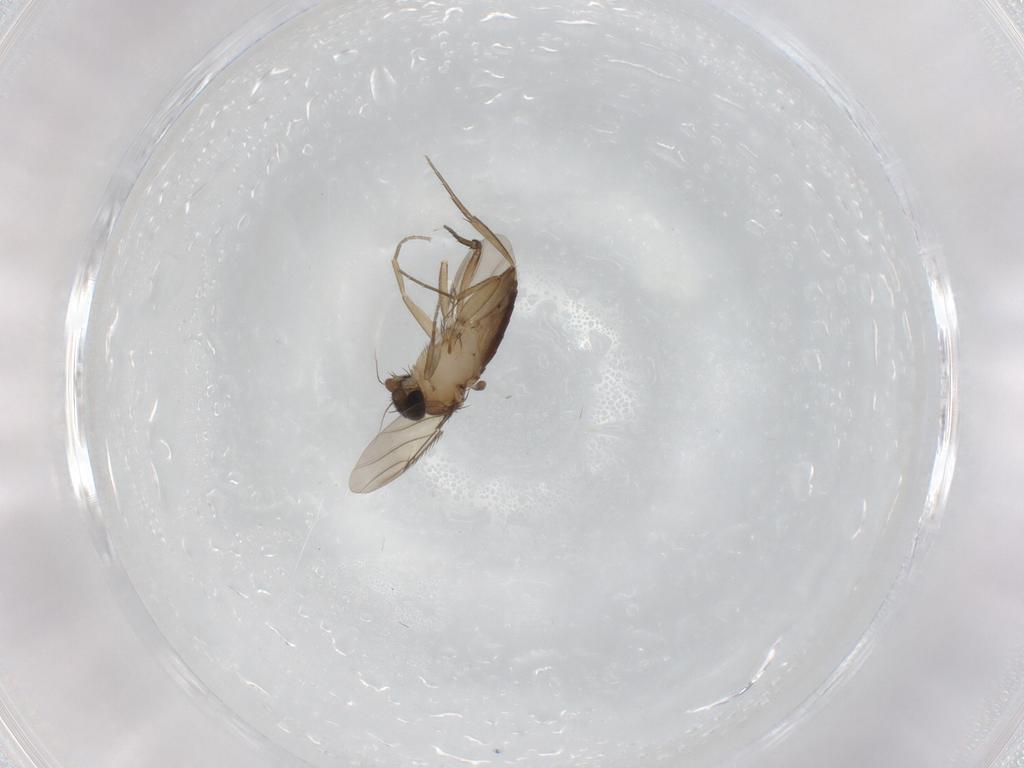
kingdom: Animalia
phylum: Arthropoda
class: Insecta
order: Diptera
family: Phoridae
